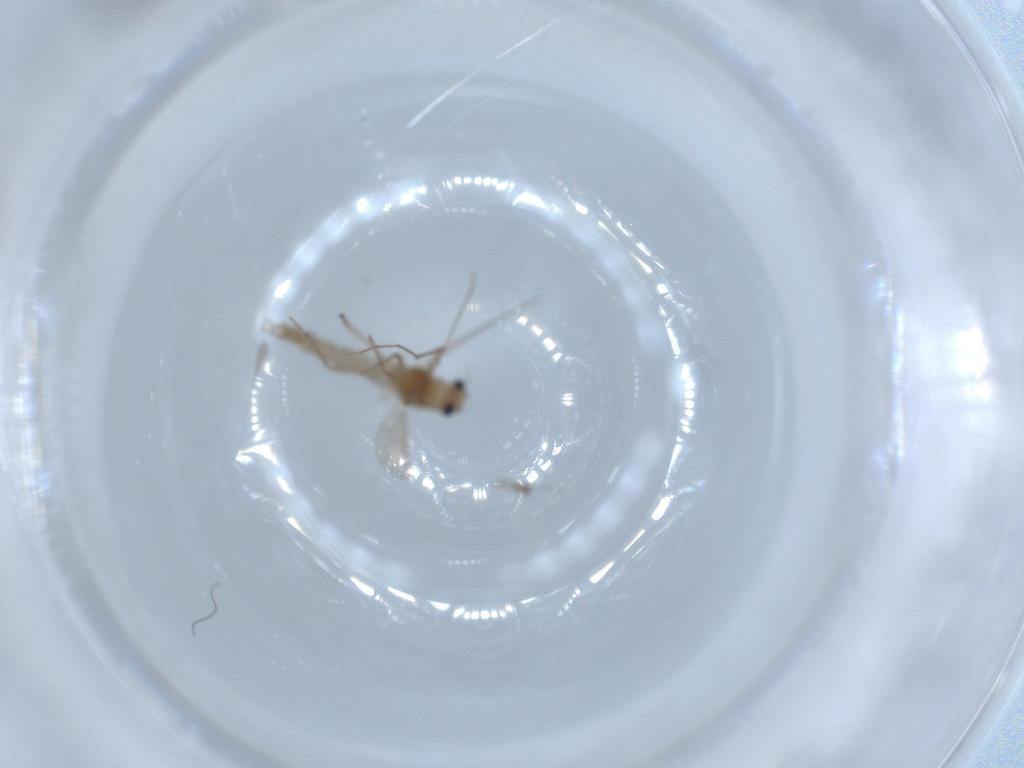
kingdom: Animalia
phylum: Arthropoda
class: Insecta
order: Diptera
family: Sciaridae
